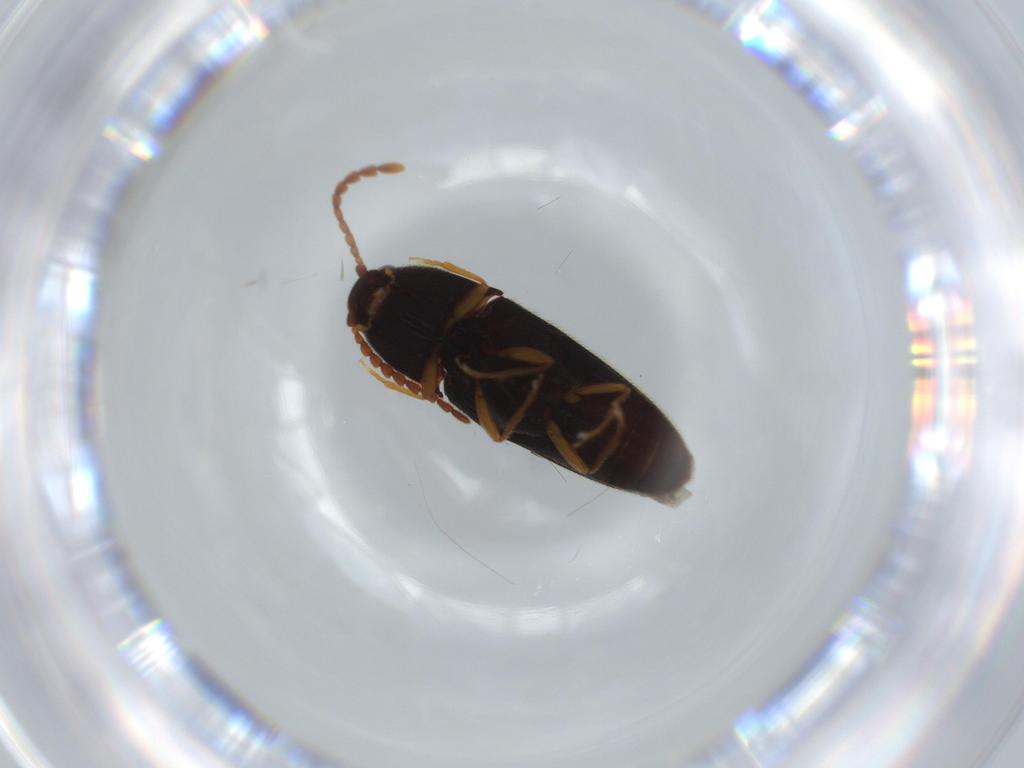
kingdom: Animalia
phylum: Arthropoda
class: Insecta
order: Coleoptera
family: Elateridae
